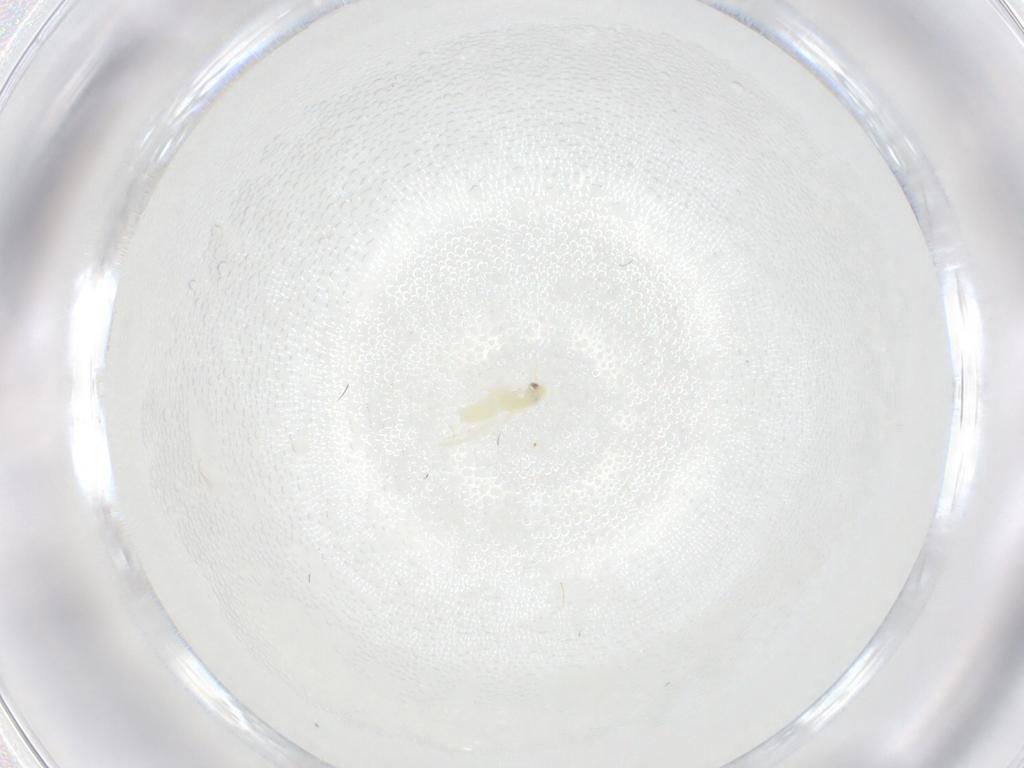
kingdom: Animalia
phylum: Arthropoda
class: Insecta
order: Hemiptera
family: Aleyrodidae
